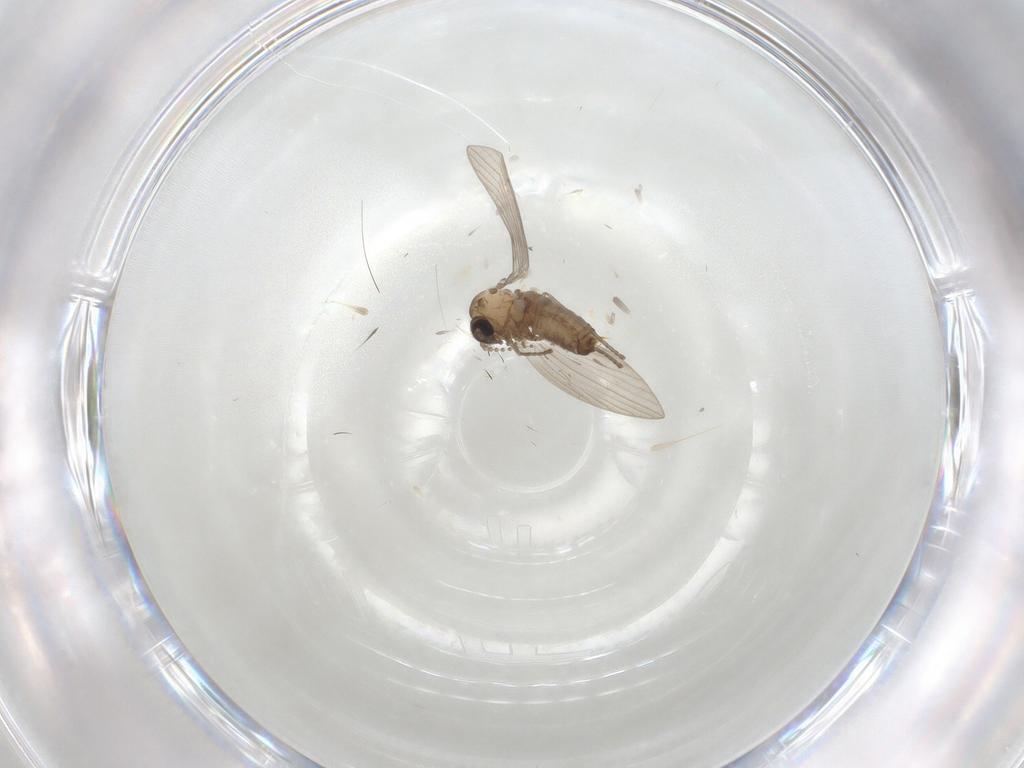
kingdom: Animalia
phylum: Arthropoda
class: Insecta
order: Diptera
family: Psychodidae
